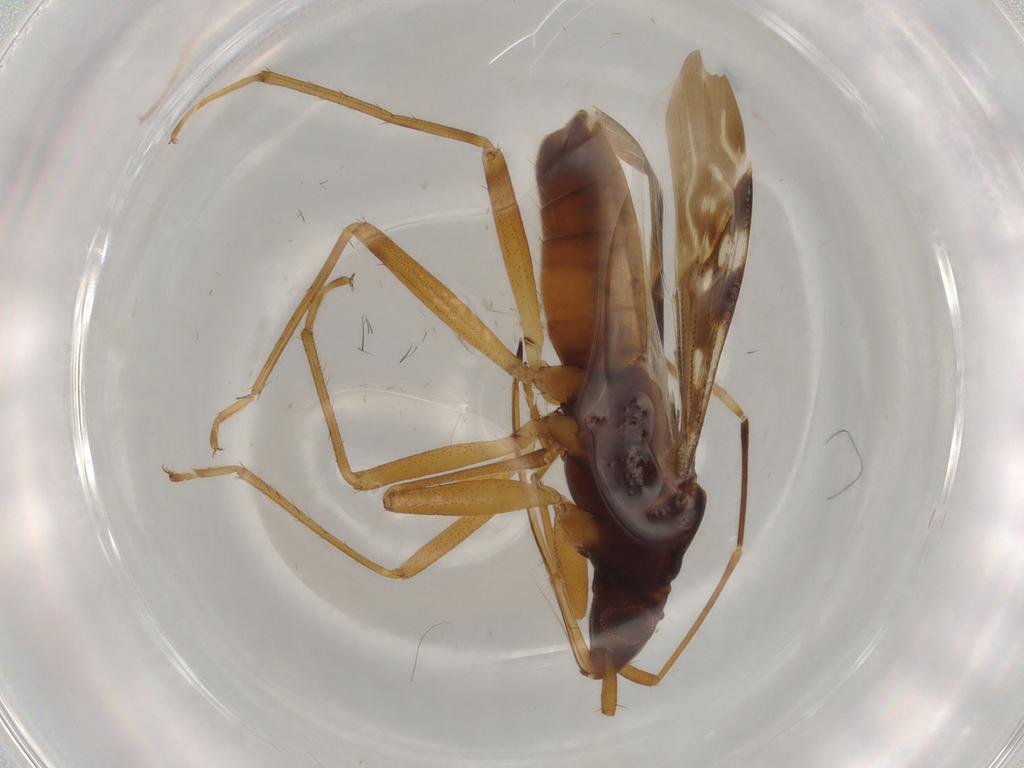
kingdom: Animalia
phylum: Arthropoda
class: Insecta
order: Hemiptera
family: Rhyparochromidae
